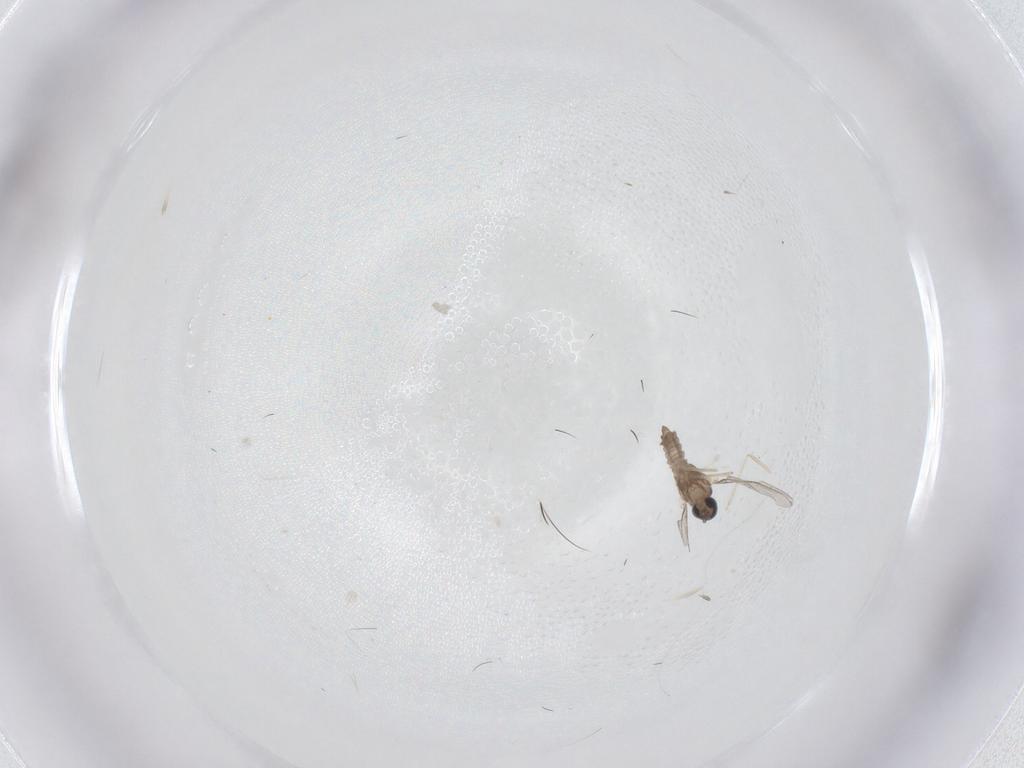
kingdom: Animalia
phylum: Arthropoda
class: Insecta
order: Diptera
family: Cecidomyiidae
